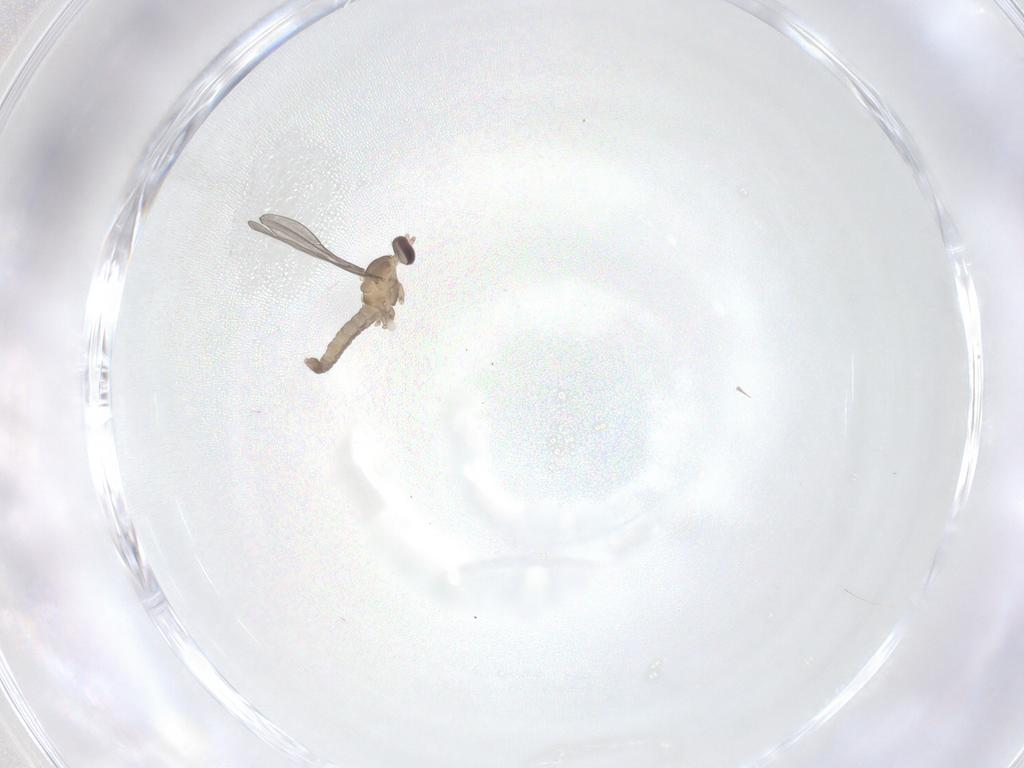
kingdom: Animalia
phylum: Arthropoda
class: Insecta
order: Diptera
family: Cecidomyiidae
